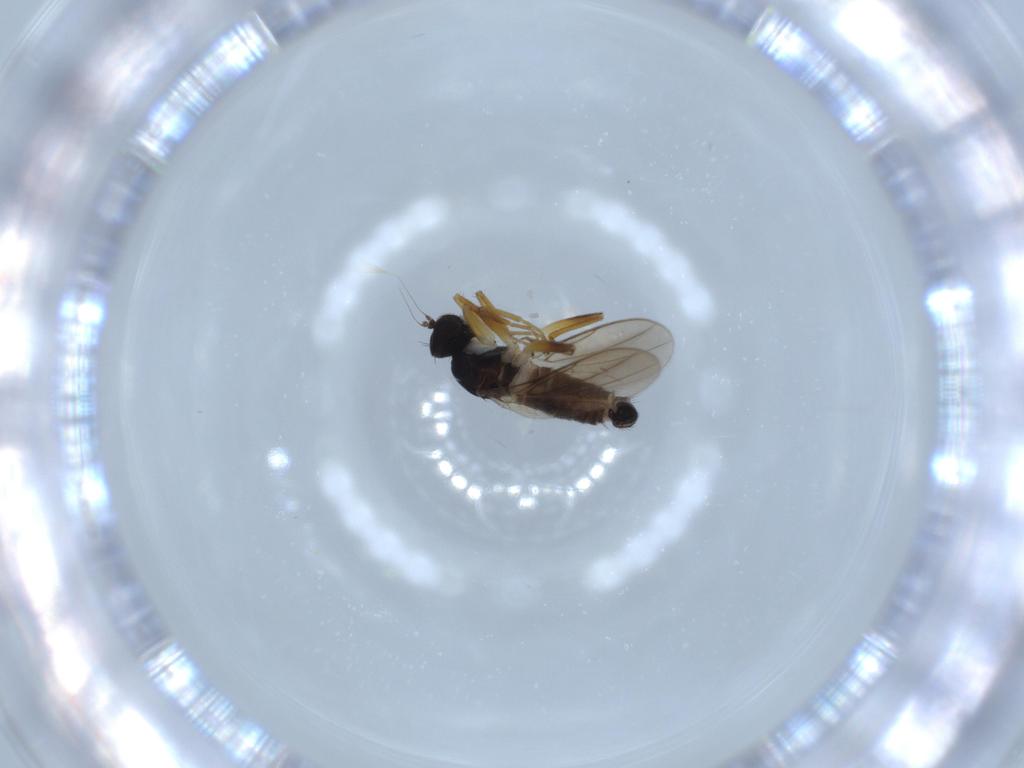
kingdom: Animalia
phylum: Arthropoda
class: Insecta
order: Diptera
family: Hybotidae
